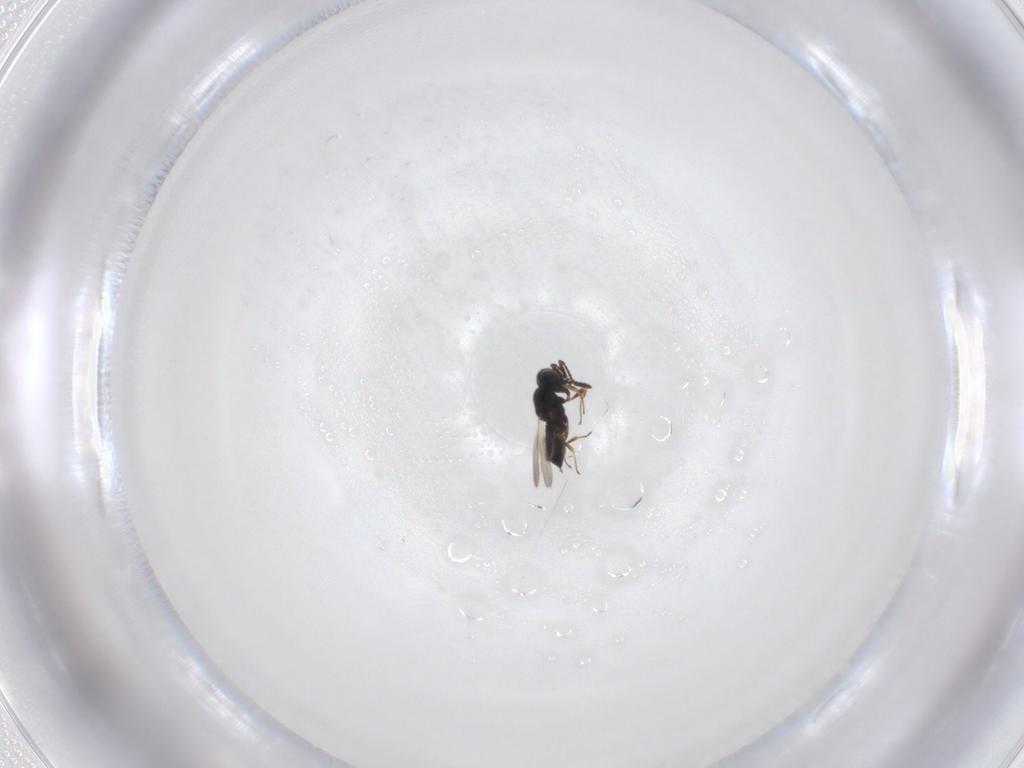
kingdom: Animalia
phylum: Arthropoda
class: Insecta
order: Hymenoptera
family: Scelionidae
